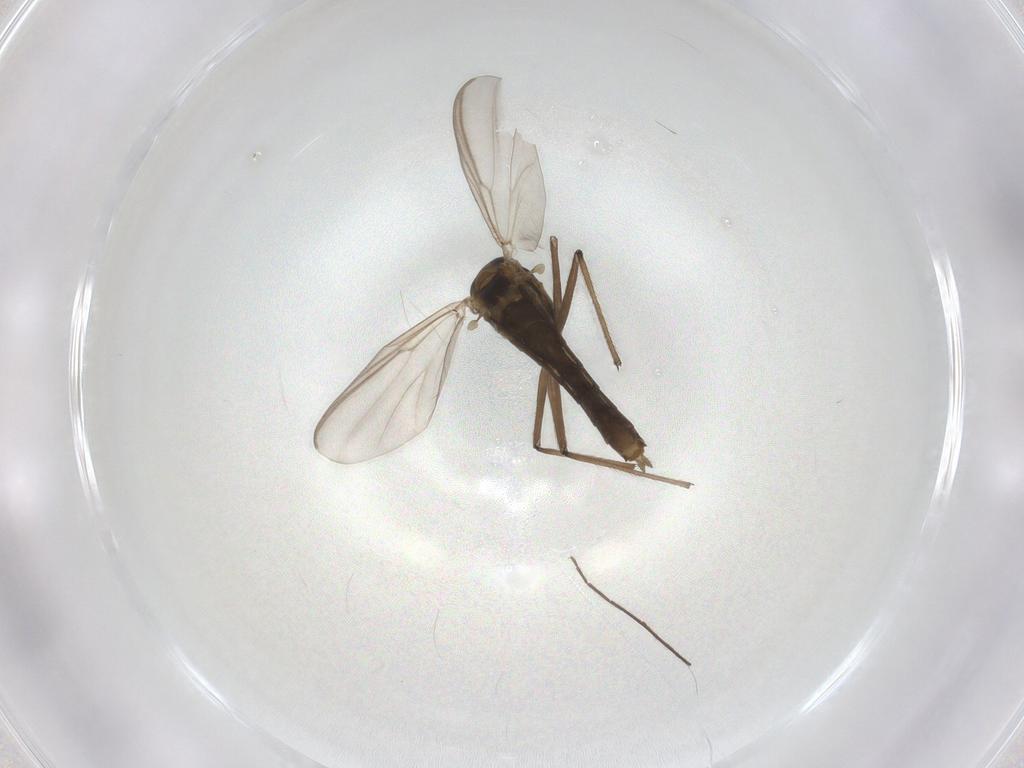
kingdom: Animalia
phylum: Arthropoda
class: Insecta
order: Diptera
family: Chironomidae
